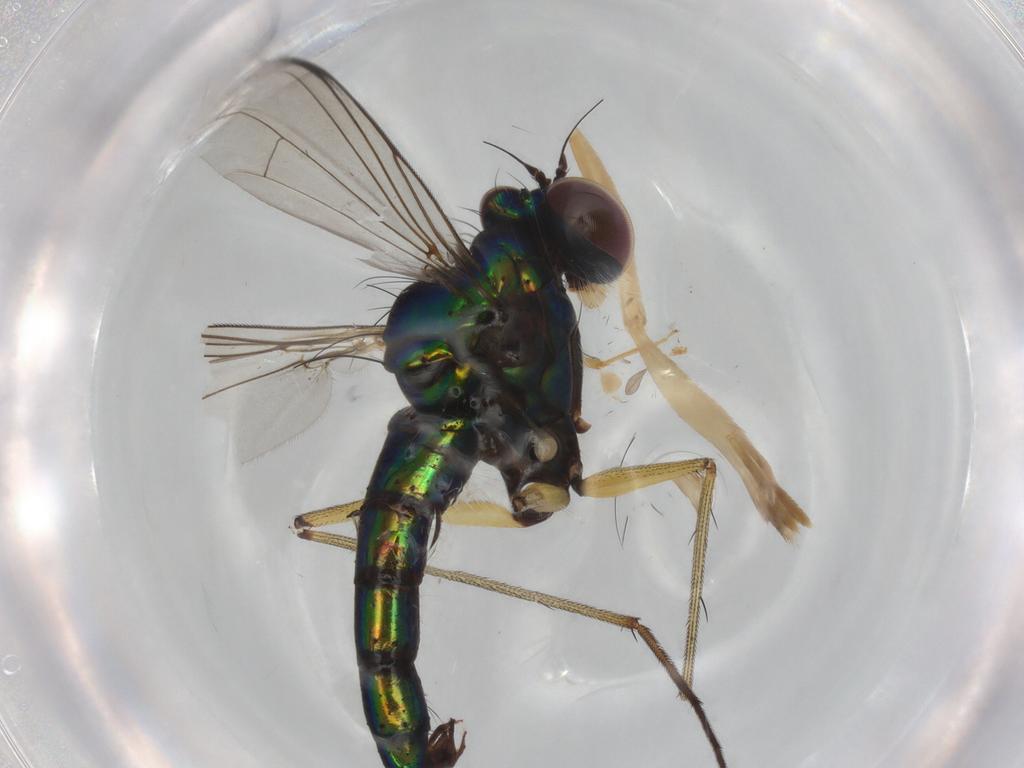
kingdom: Animalia
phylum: Arthropoda
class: Insecta
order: Diptera
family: Dolichopodidae
